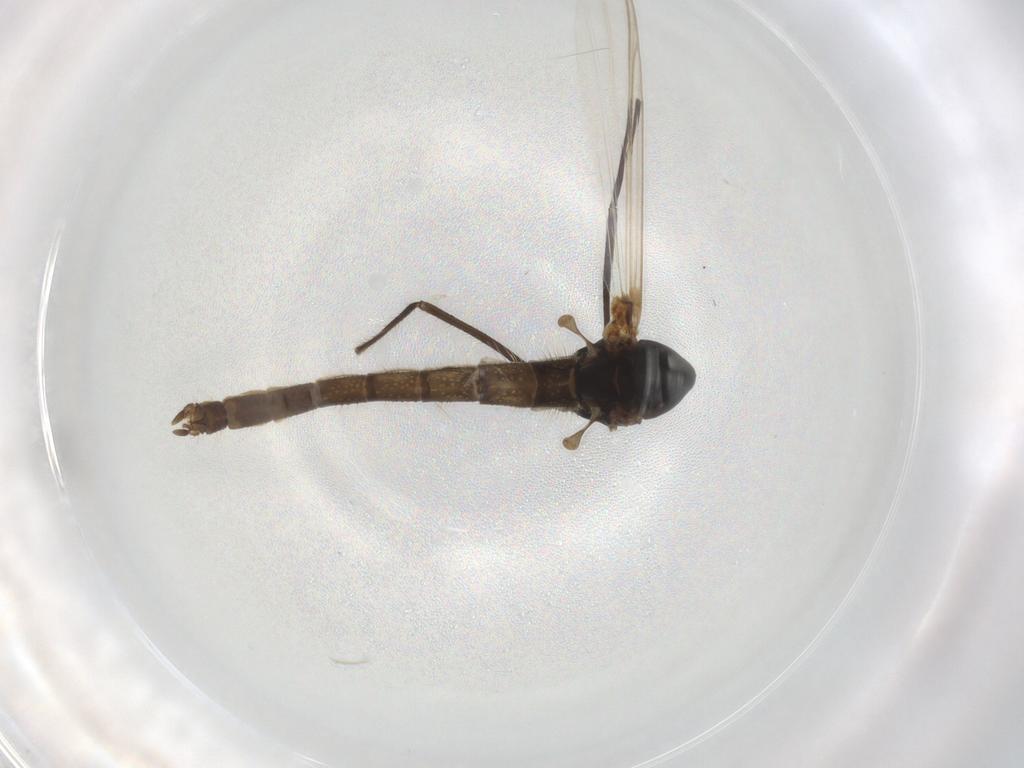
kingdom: Animalia
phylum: Arthropoda
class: Insecta
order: Diptera
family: Chironomidae
